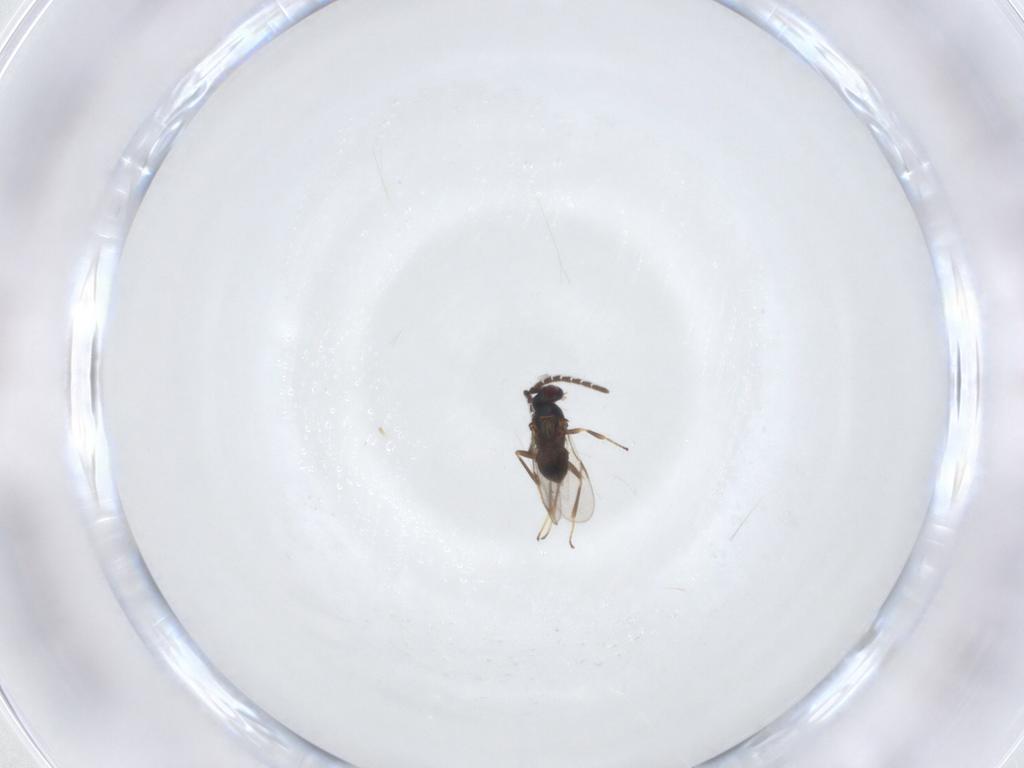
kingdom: Animalia
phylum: Arthropoda
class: Insecta
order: Hymenoptera
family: Encyrtidae
